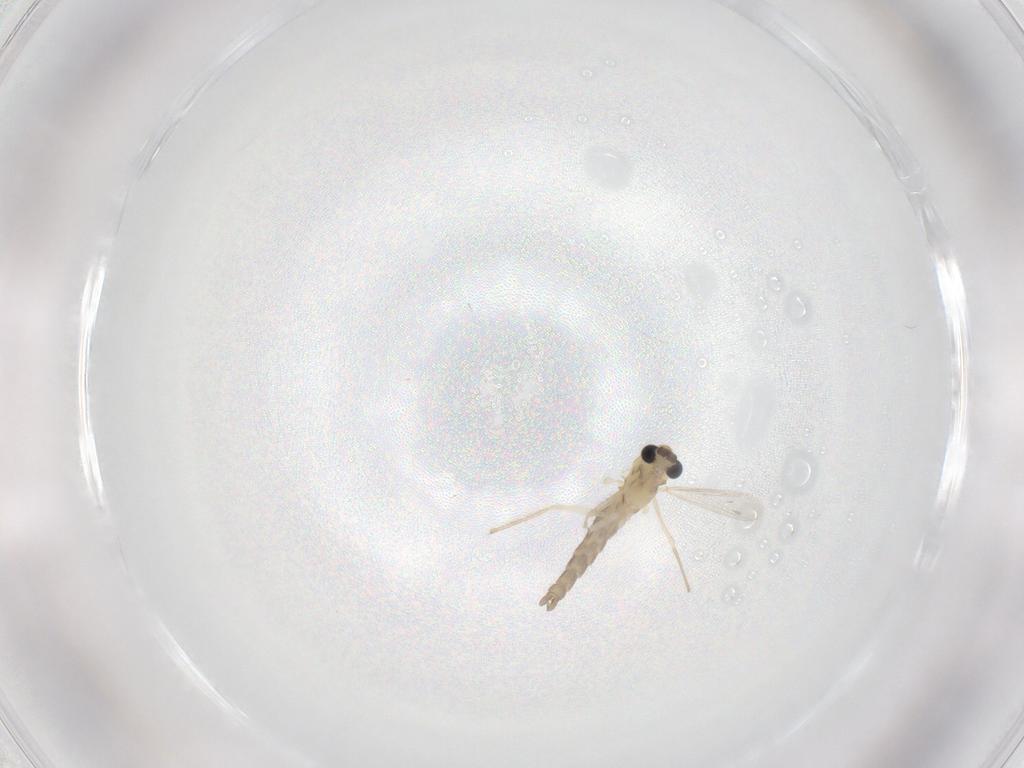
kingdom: Animalia
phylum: Arthropoda
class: Insecta
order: Diptera
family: Chironomidae
